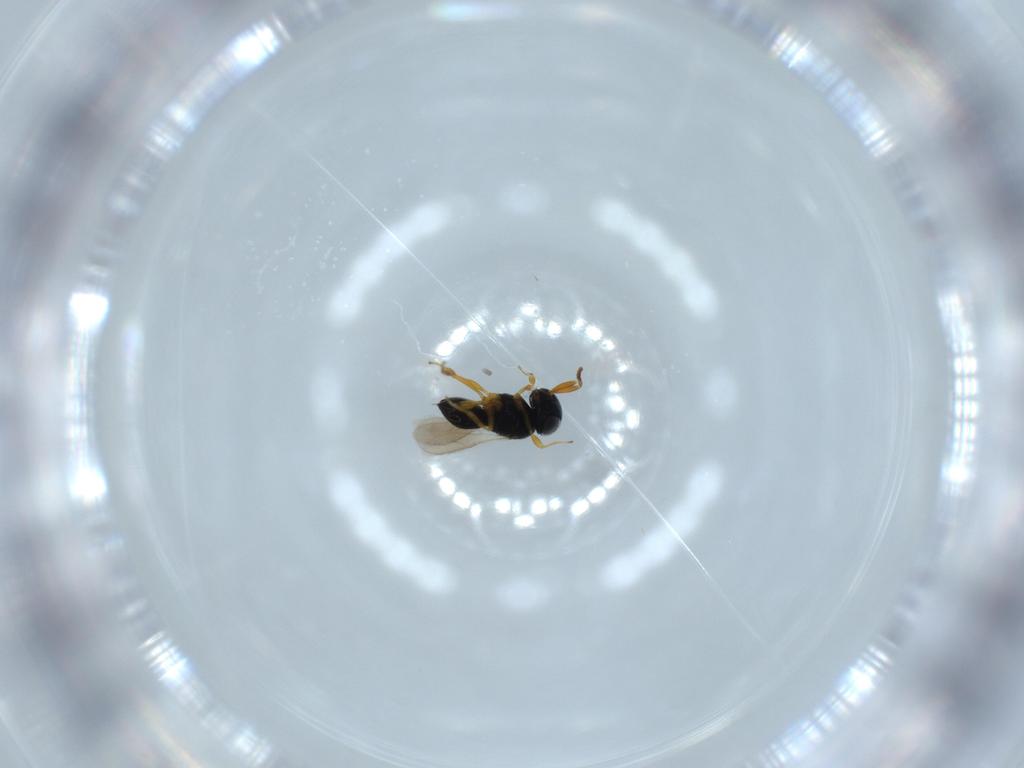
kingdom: Animalia
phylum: Arthropoda
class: Insecta
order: Hymenoptera
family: Scelionidae
